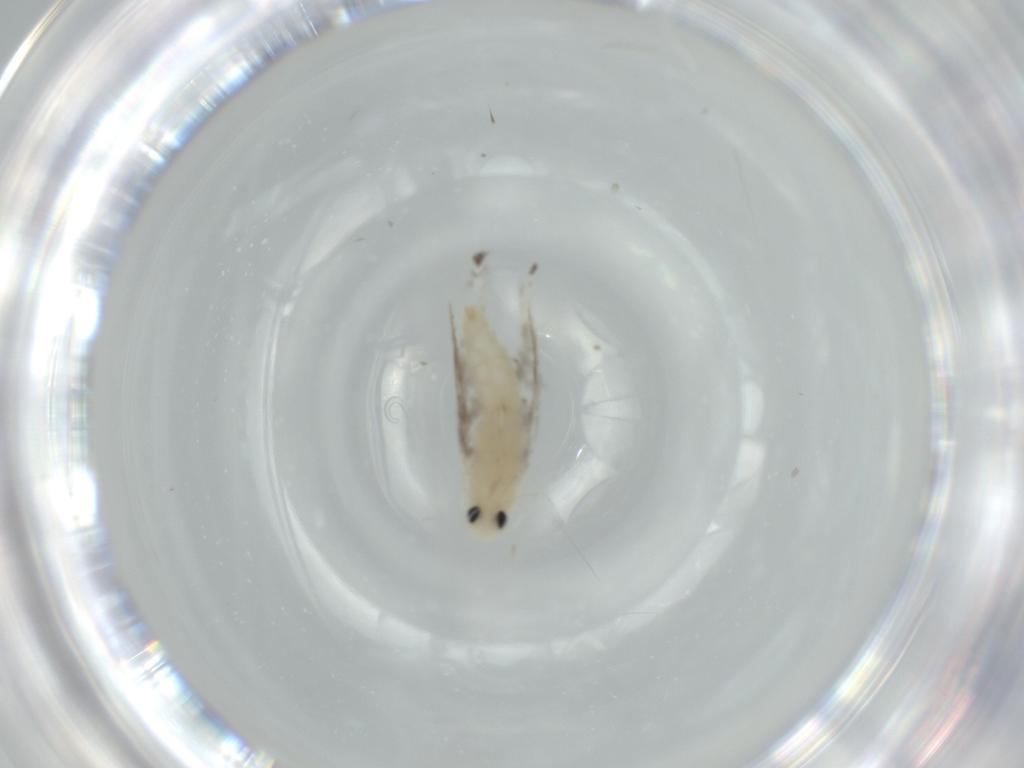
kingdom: Animalia
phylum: Arthropoda
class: Insecta
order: Lepidoptera
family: Gracillariidae
